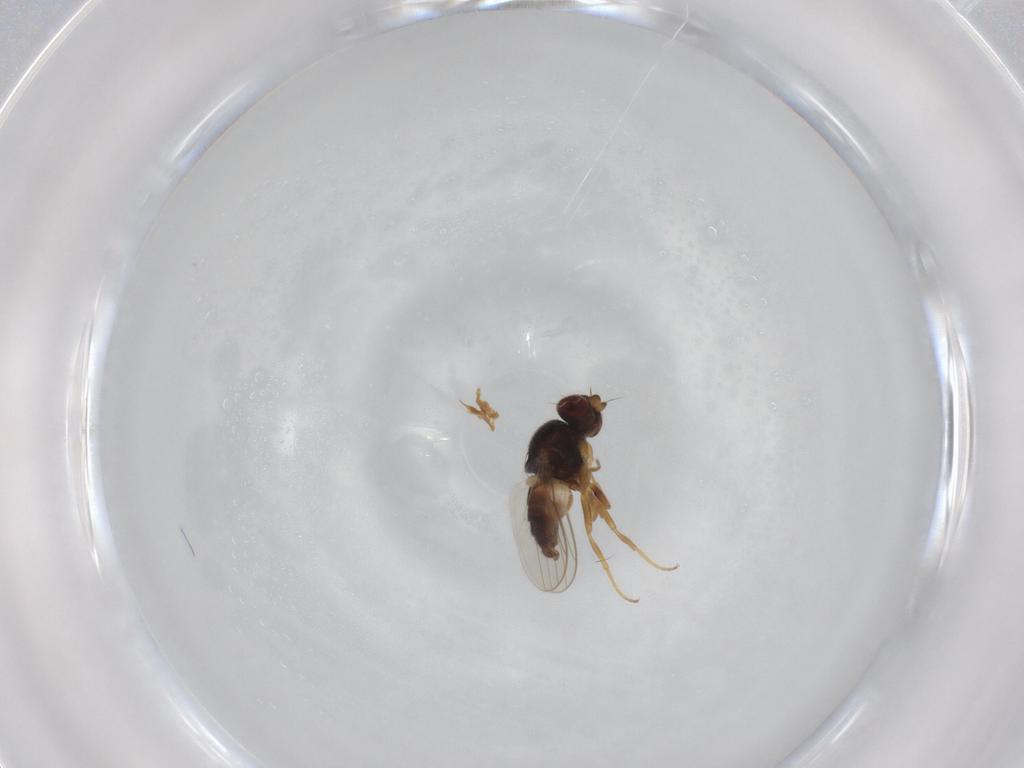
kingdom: Animalia
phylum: Arthropoda
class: Insecta
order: Diptera
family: Chloropidae
